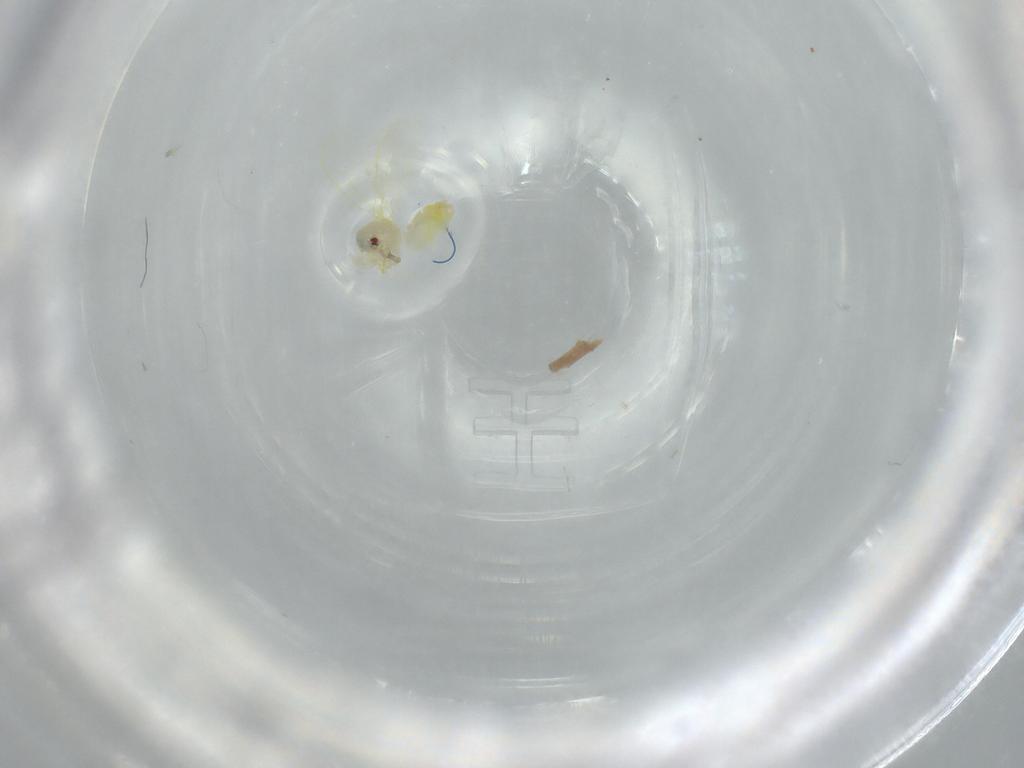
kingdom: Animalia
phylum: Arthropoda
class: Insecta
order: Hemiptera
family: Aleyrodidae
